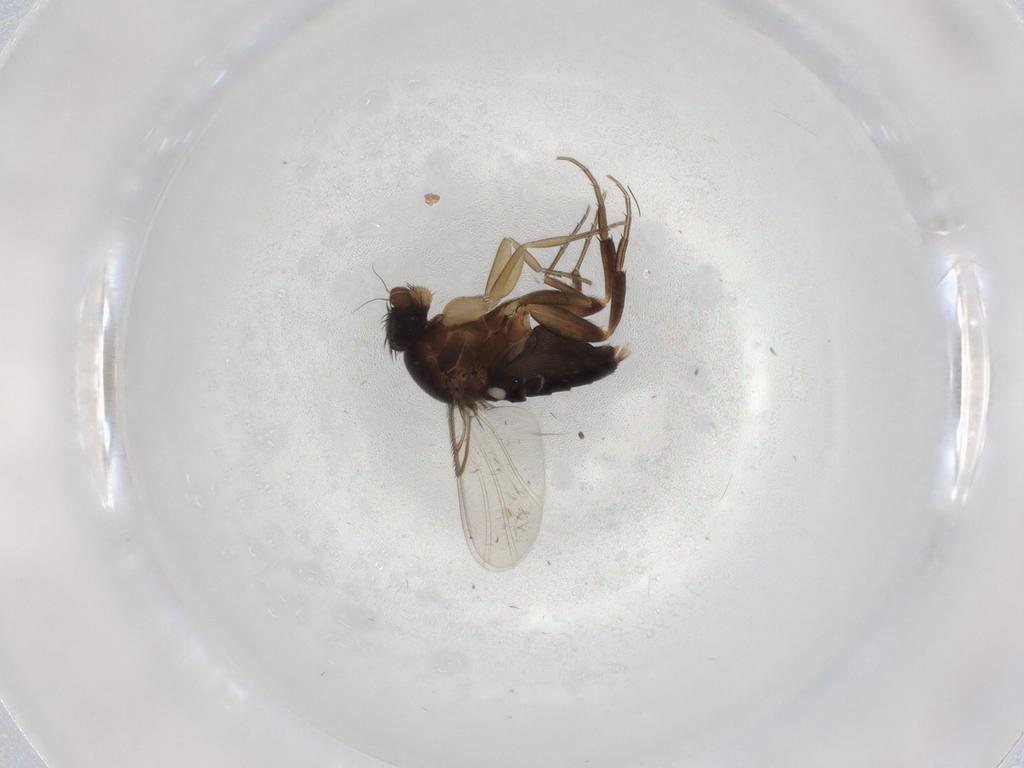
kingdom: Animalia
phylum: Arthropoda
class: Insecta
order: Diptera
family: Phoridae
